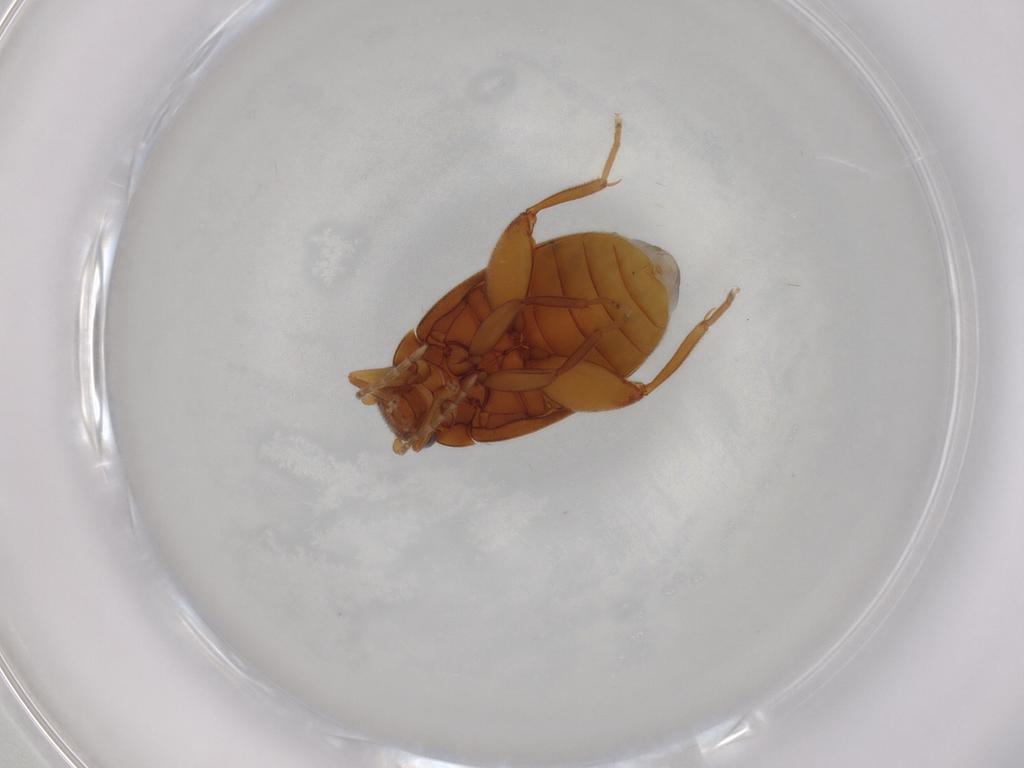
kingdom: Animalia
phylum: Arthropoda
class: Insecta
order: Coleoptera
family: Scirtidae
